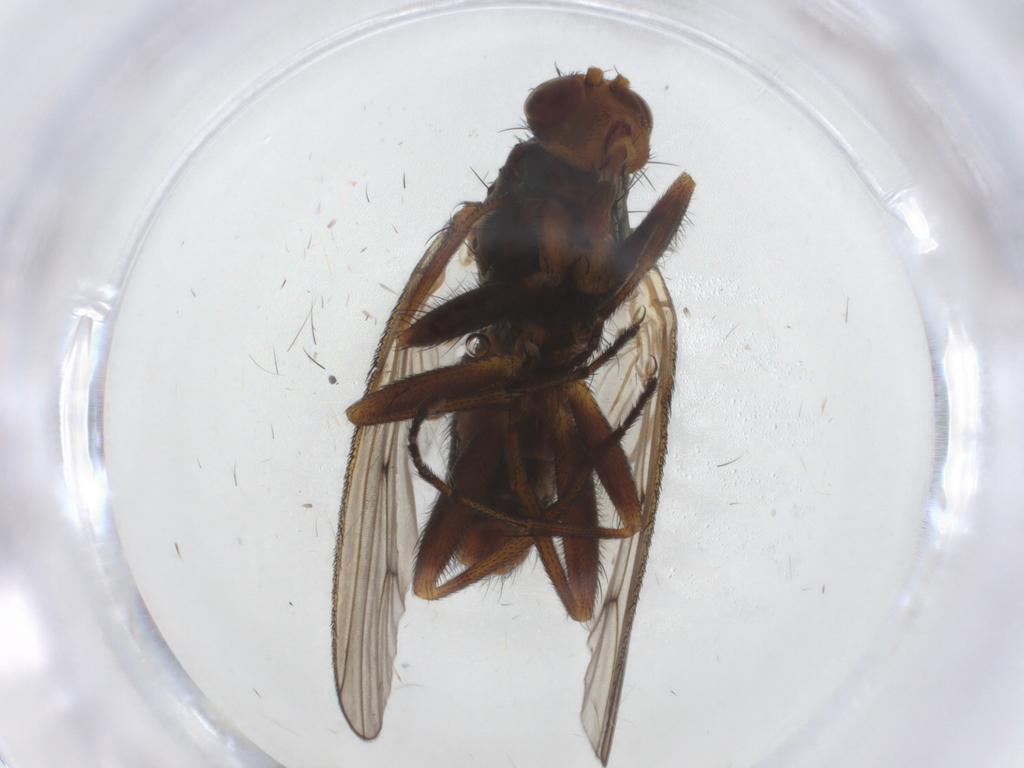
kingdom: Animalia
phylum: Arthropoda
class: Insecta
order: Diptera
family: Heleomyzidae
